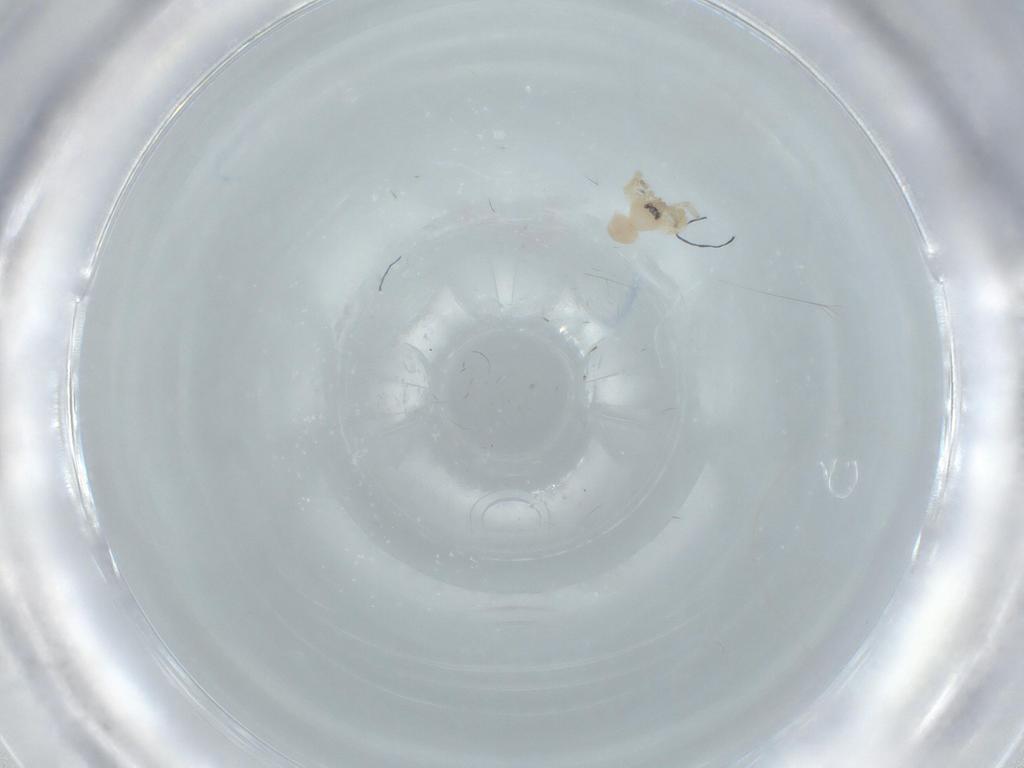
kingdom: Animalia
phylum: Arthropoda
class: Arachnida
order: Araneae
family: Oonopidae
